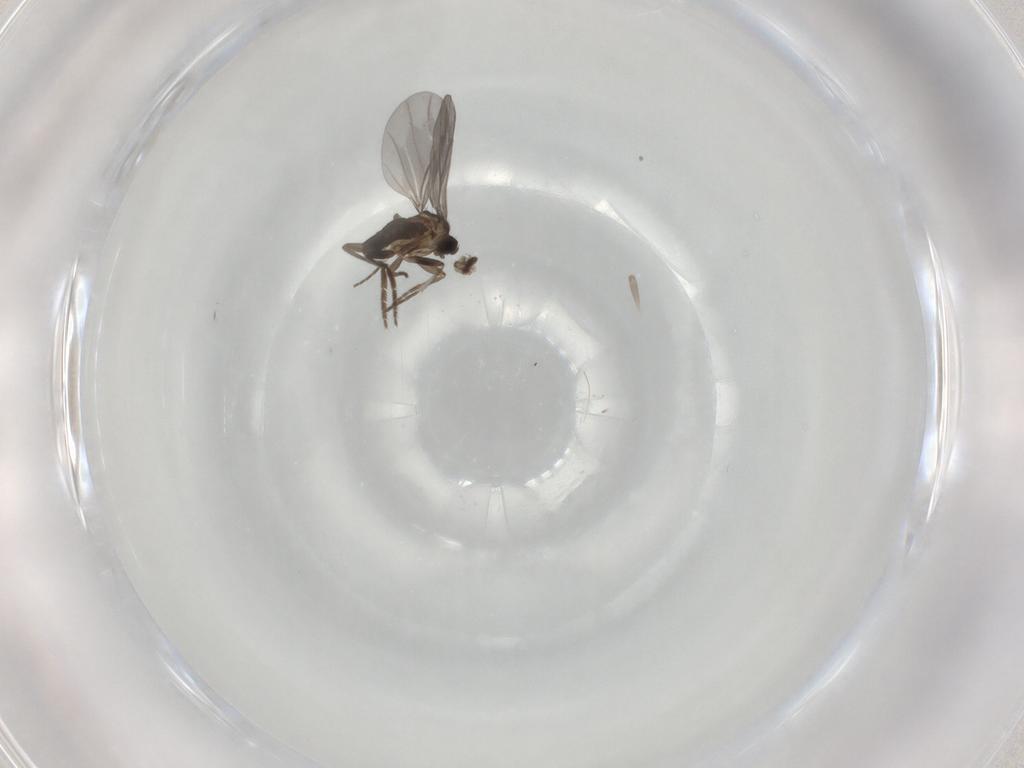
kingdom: Animalia
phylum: Arthropoda
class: Insecta
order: Diptera
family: Phoridae
